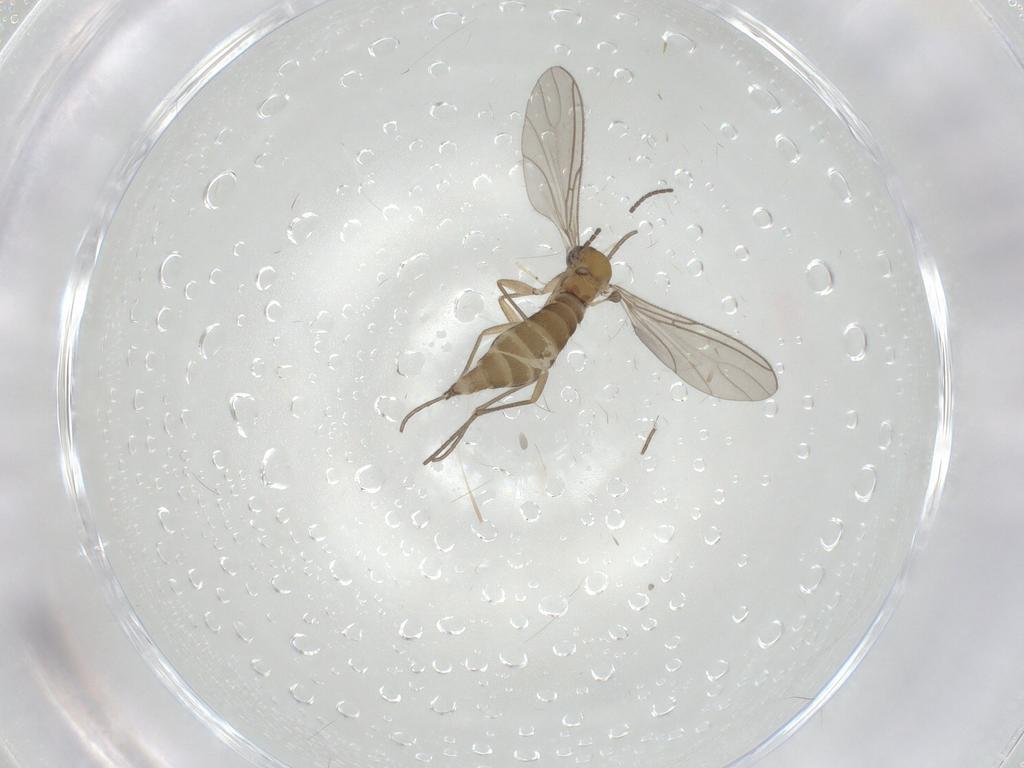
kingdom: Animalia
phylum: Arthropoda
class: Insecta
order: Diptera
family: Sciaridae
